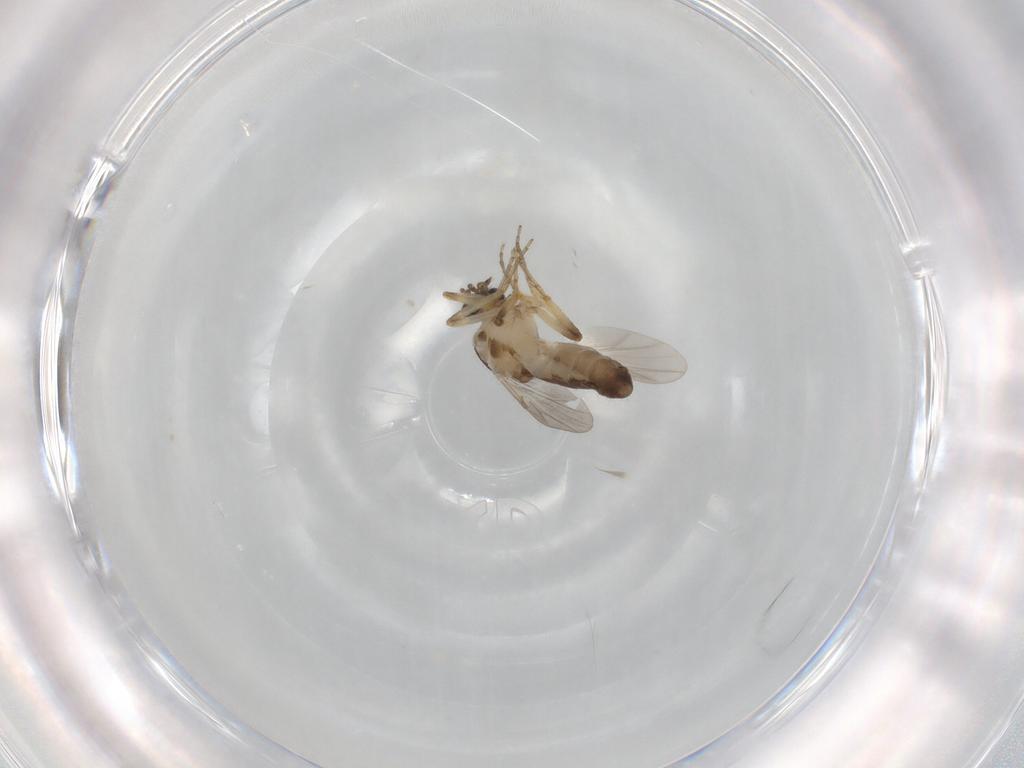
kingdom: Animalia
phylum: Arthropoda
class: Insecta
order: Diptera
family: Ceratopogonidae
